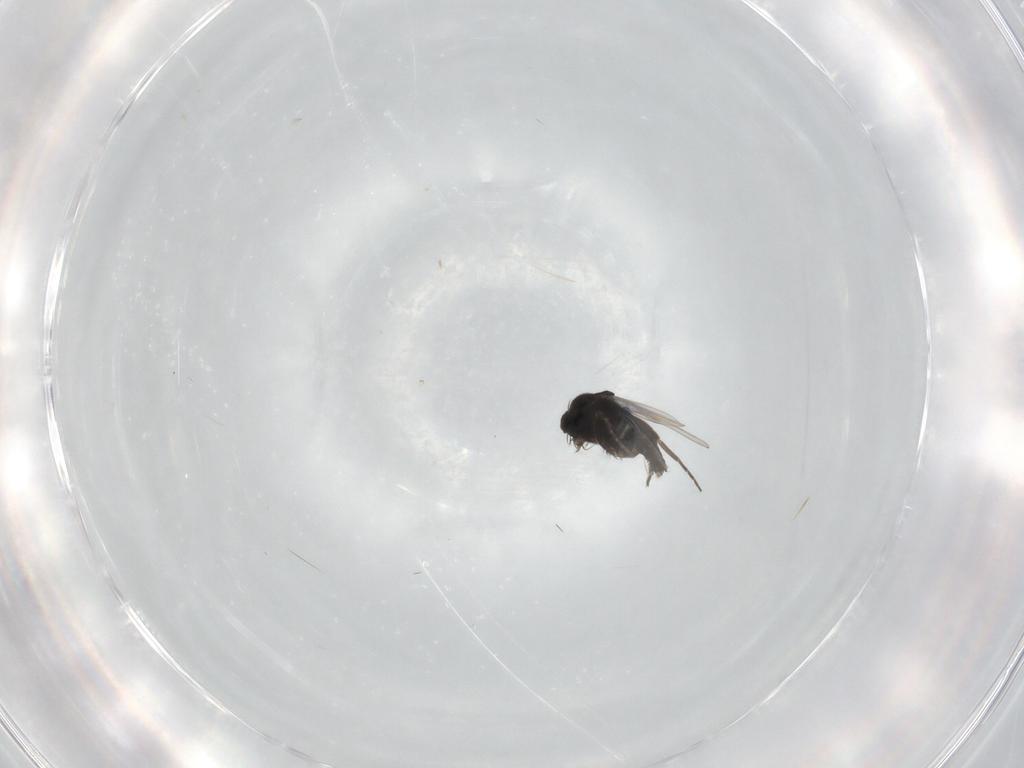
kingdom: Animalia
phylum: Arthropoda
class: Insecta
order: Diptera
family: Phoridae
